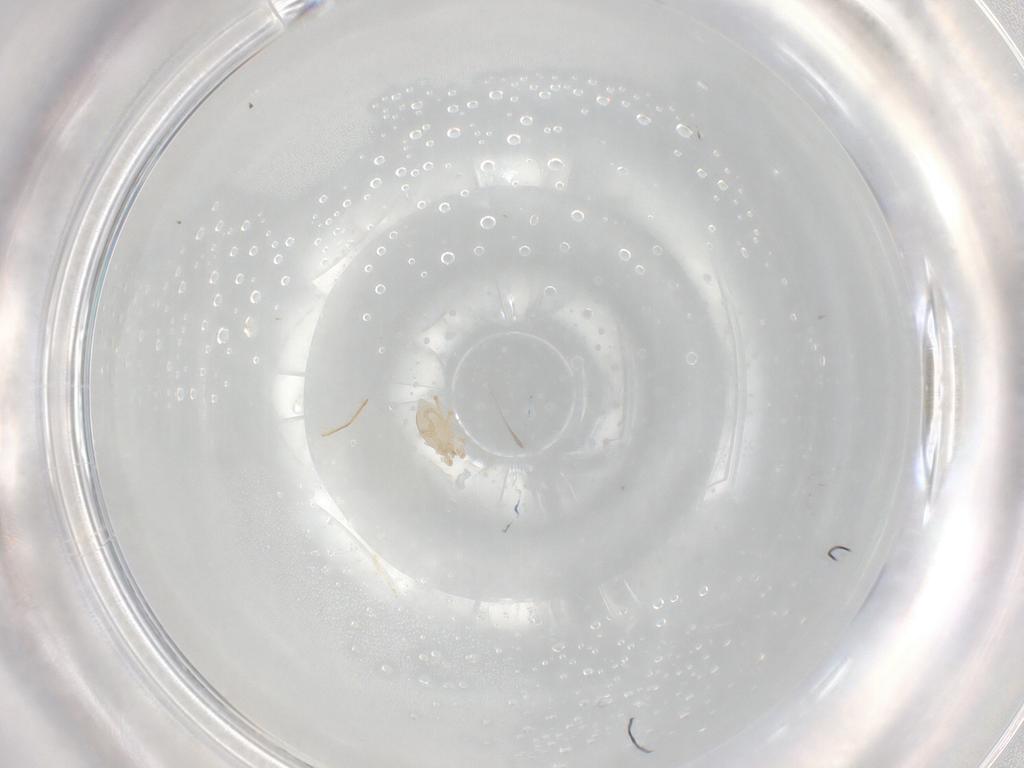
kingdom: Animalia
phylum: Arthropoda
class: Arachnida
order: Mesostigmata
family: Melicharidae
